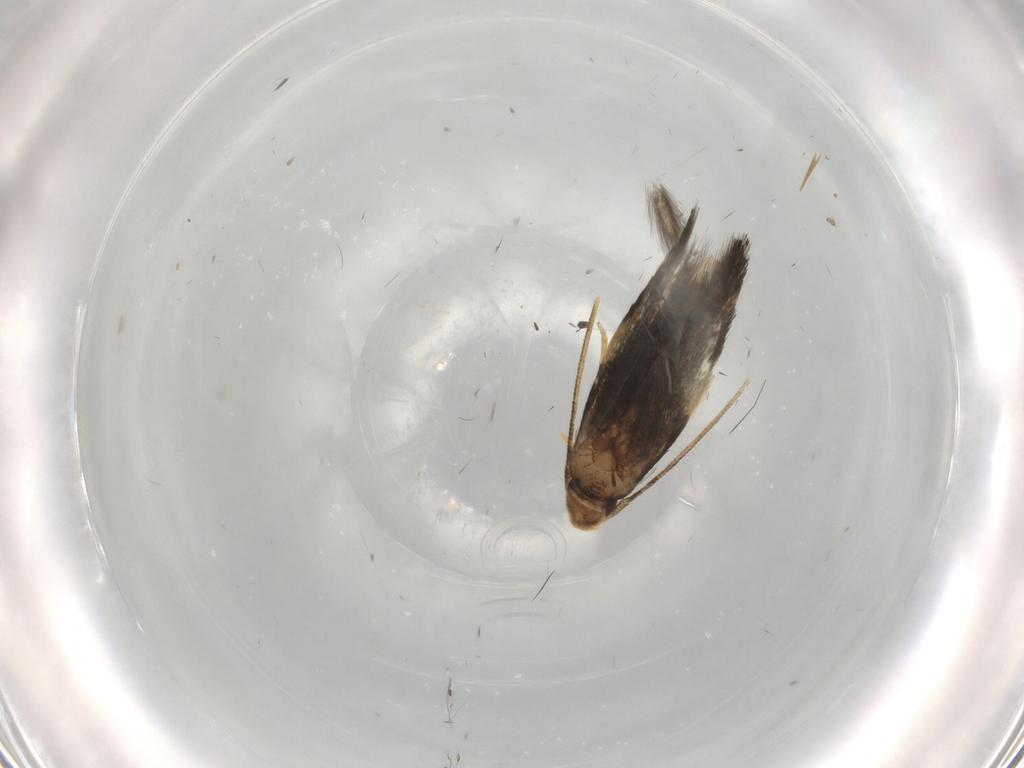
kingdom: Animalia
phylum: Arthropoda
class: Insecta
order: Lepidoptera
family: Gelechiidae
